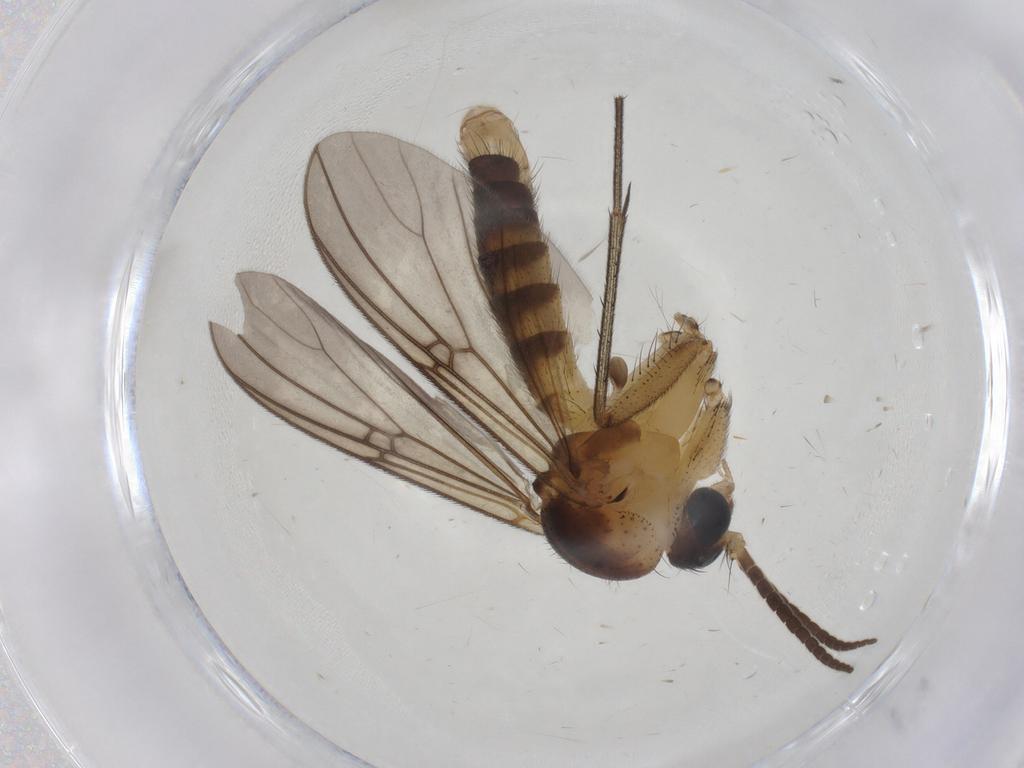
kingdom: Animalia
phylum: Arthropoda
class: Insecta
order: Diptera
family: Mycetophilidae
